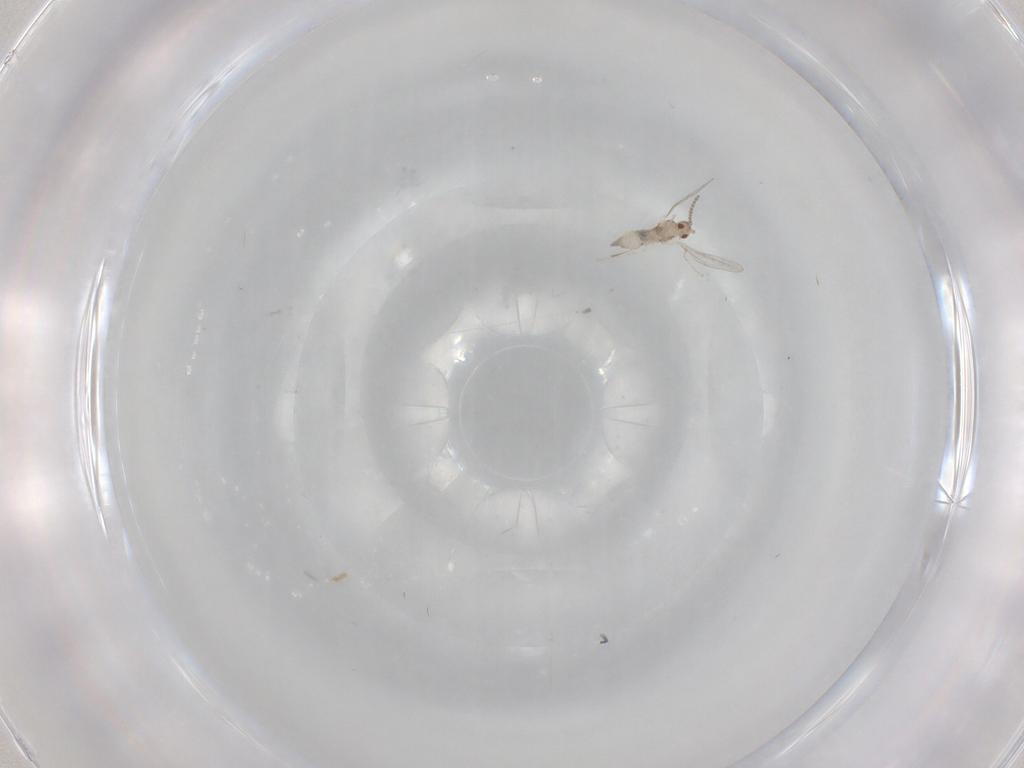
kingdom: Animalia
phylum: Arthropoda
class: Insecta
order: Diptera
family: Cecidomyiidae
